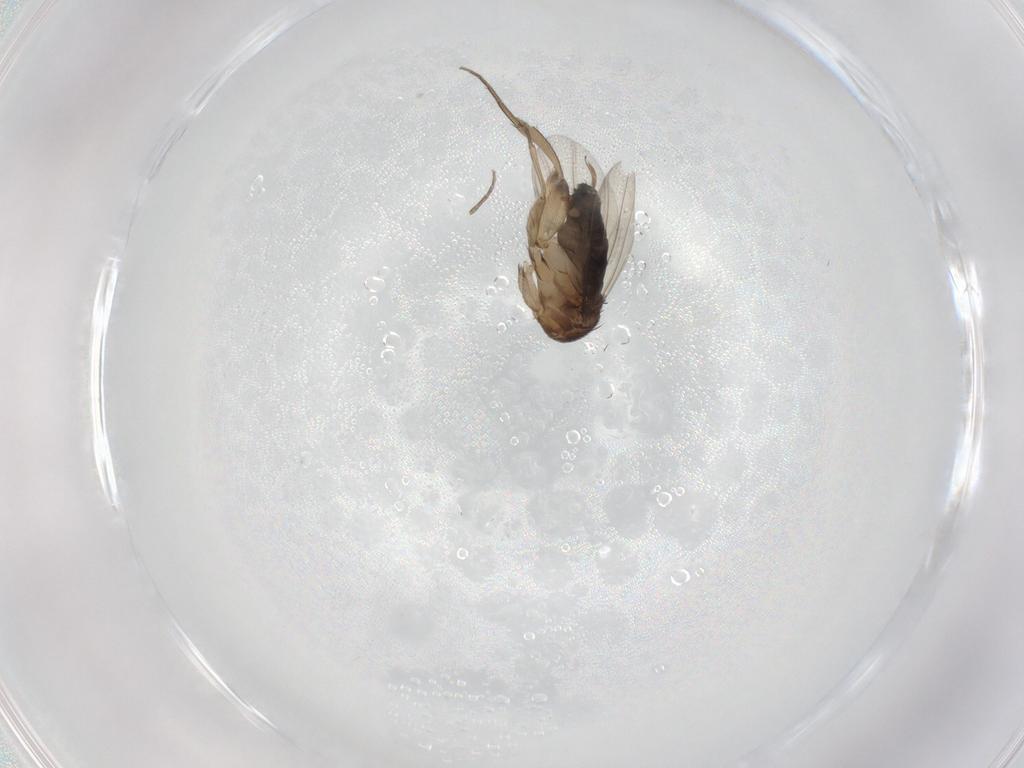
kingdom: Animalia
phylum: Arthropoda
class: Insecta
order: Diptera
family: Phoridae
